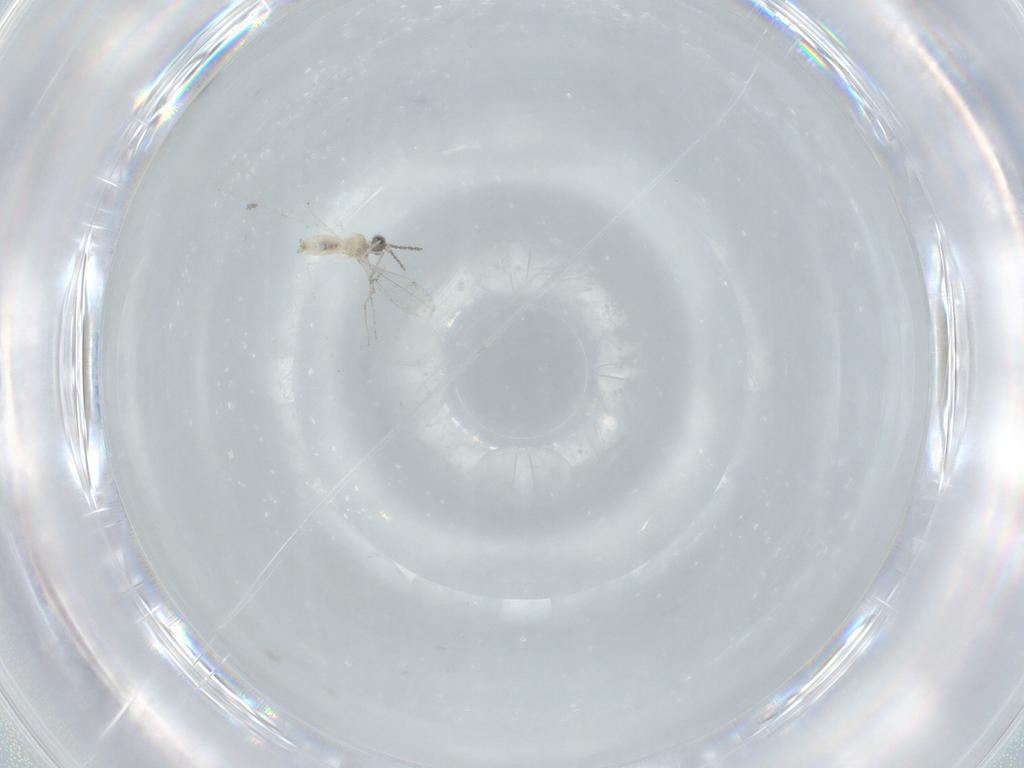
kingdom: Animalia
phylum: Arthropoda
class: Insecta
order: Diptera
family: Cecidomyiidae
